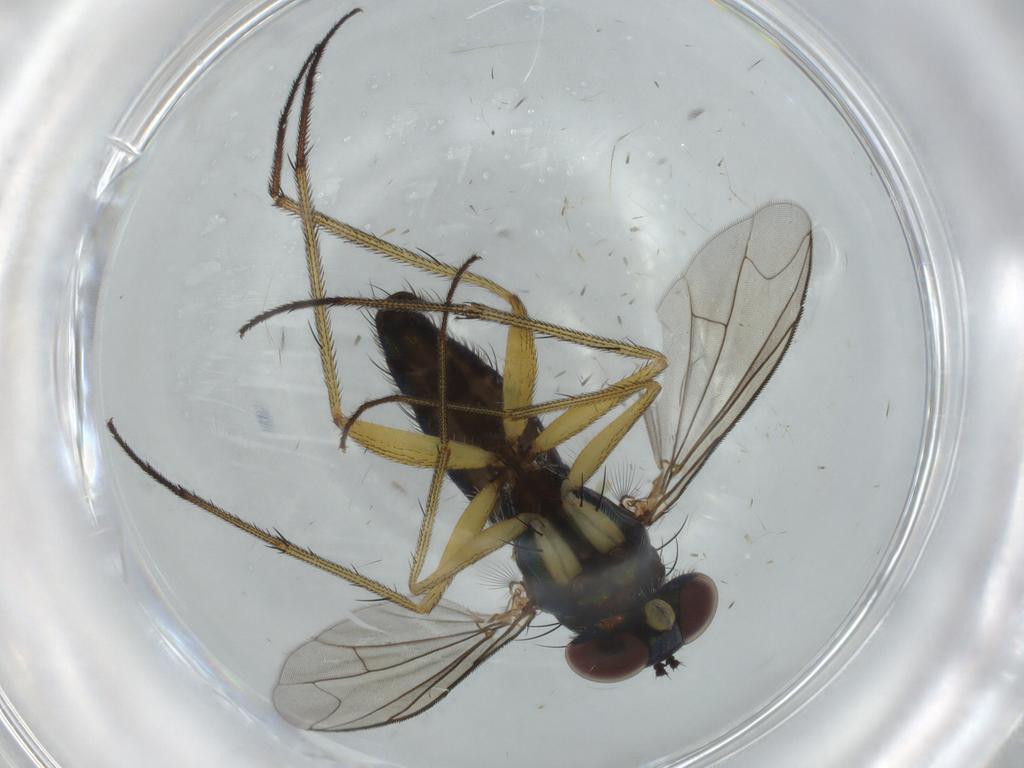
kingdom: Animalia
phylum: Arthropoda
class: Insecta
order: Diptera
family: Dolichopodidae
